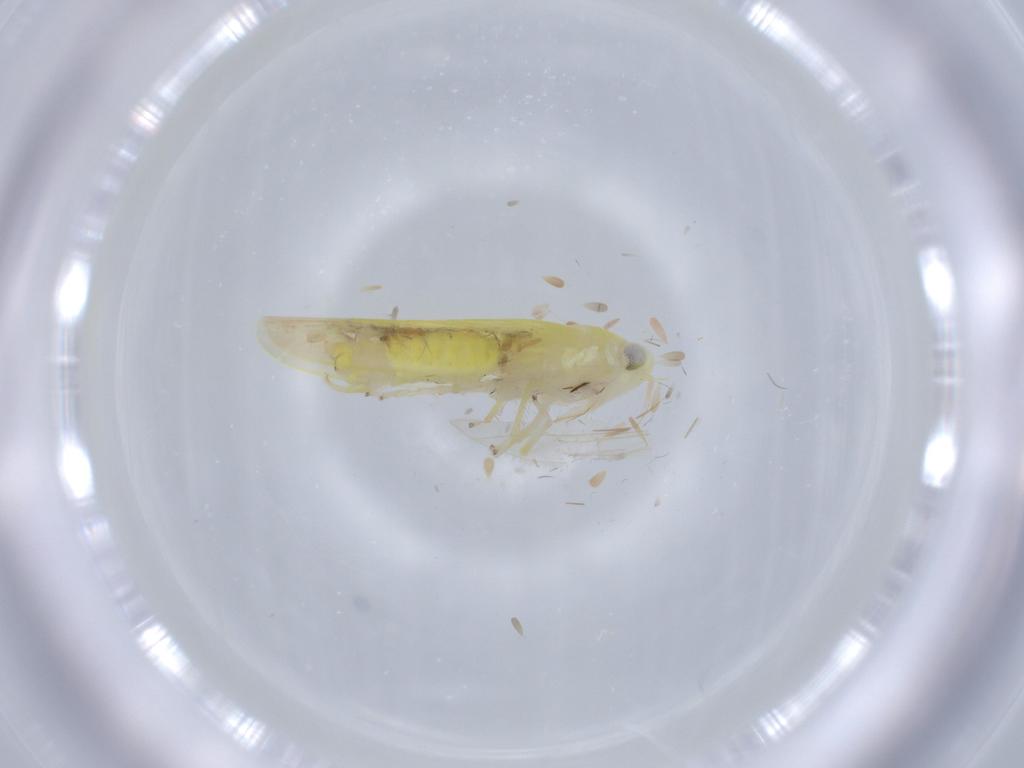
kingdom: Animalia
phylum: Arthropoda
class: Insecta
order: Hemiptera
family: Cicadellidae
